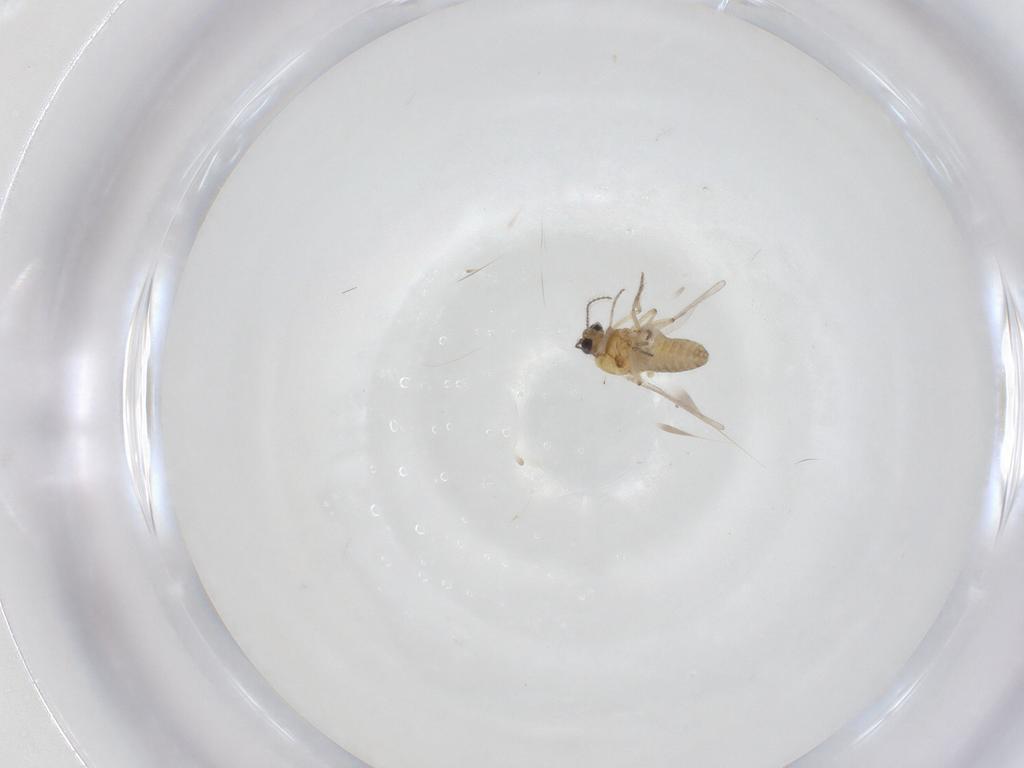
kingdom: Animalia
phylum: Arthropoda
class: Insecta
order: Diptera
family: Ceratopogonidae
